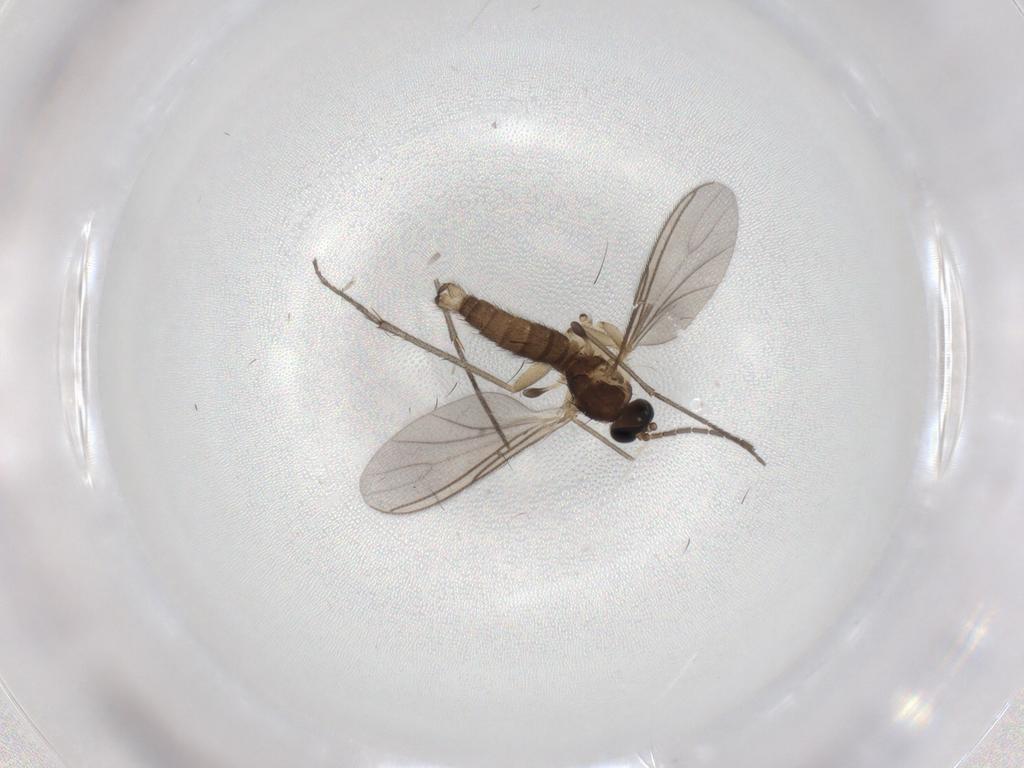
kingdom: Animalia
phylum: Arthropoda
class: Insecta
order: Diptera
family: Sciaridae
